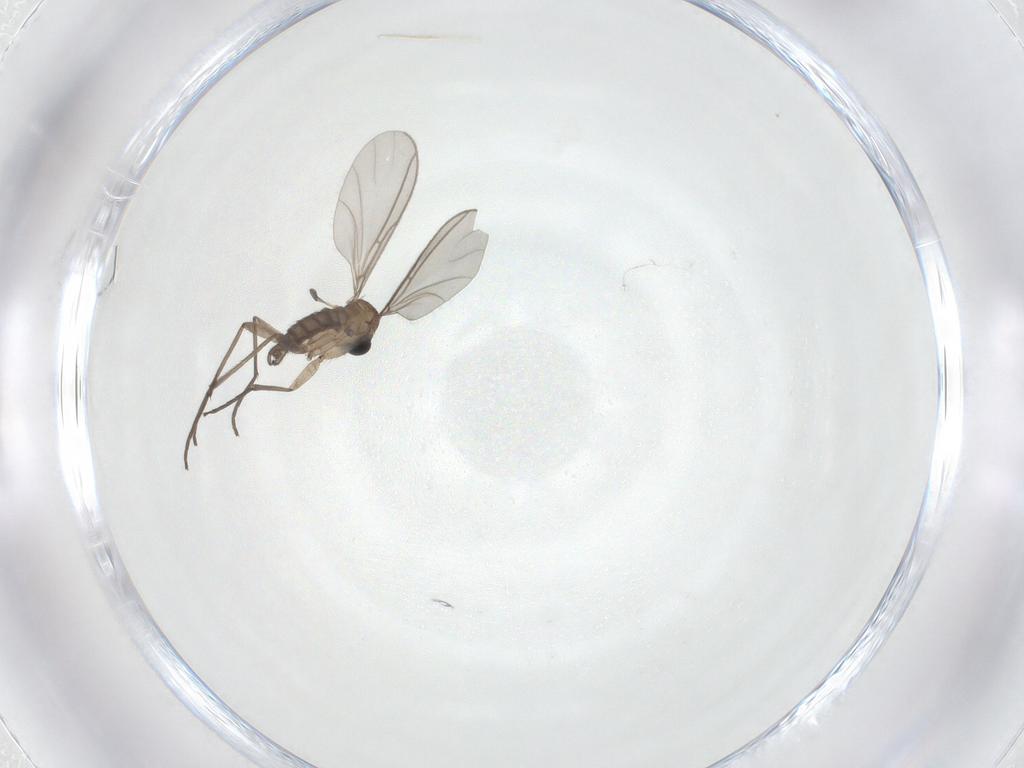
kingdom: Animalia
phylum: Arthropoda
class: Insecta
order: Diptera
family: Sciaridae
